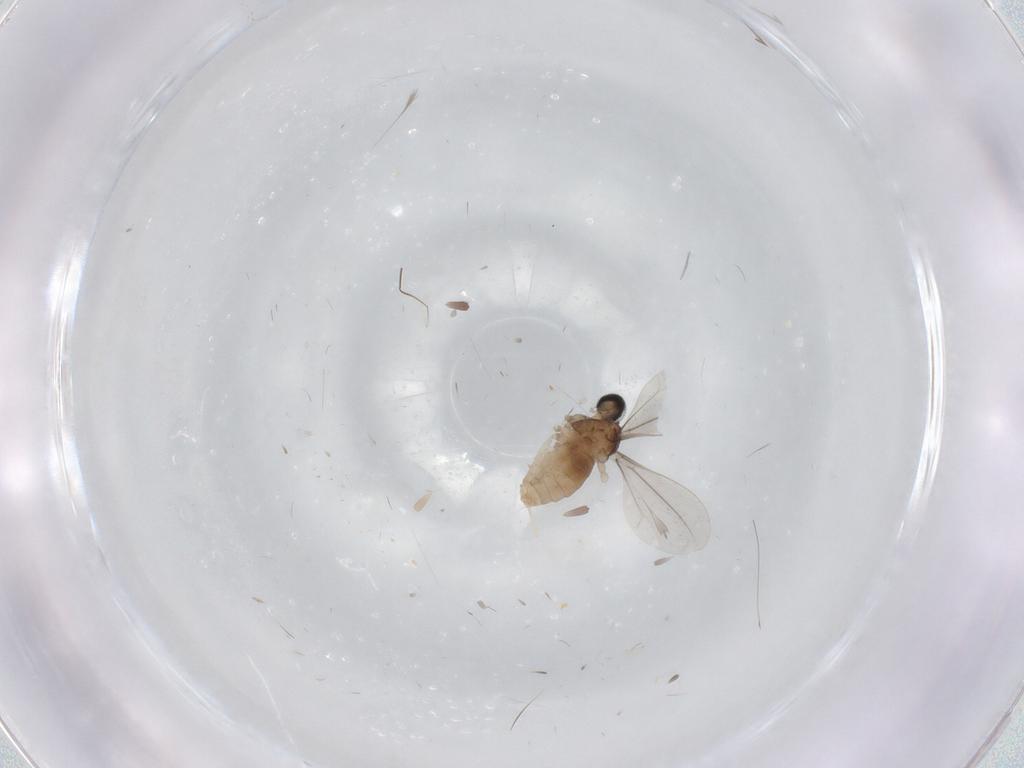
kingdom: Animalia
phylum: Arthropoda
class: Insecta
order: Diptera
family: Cecidomyiidae
